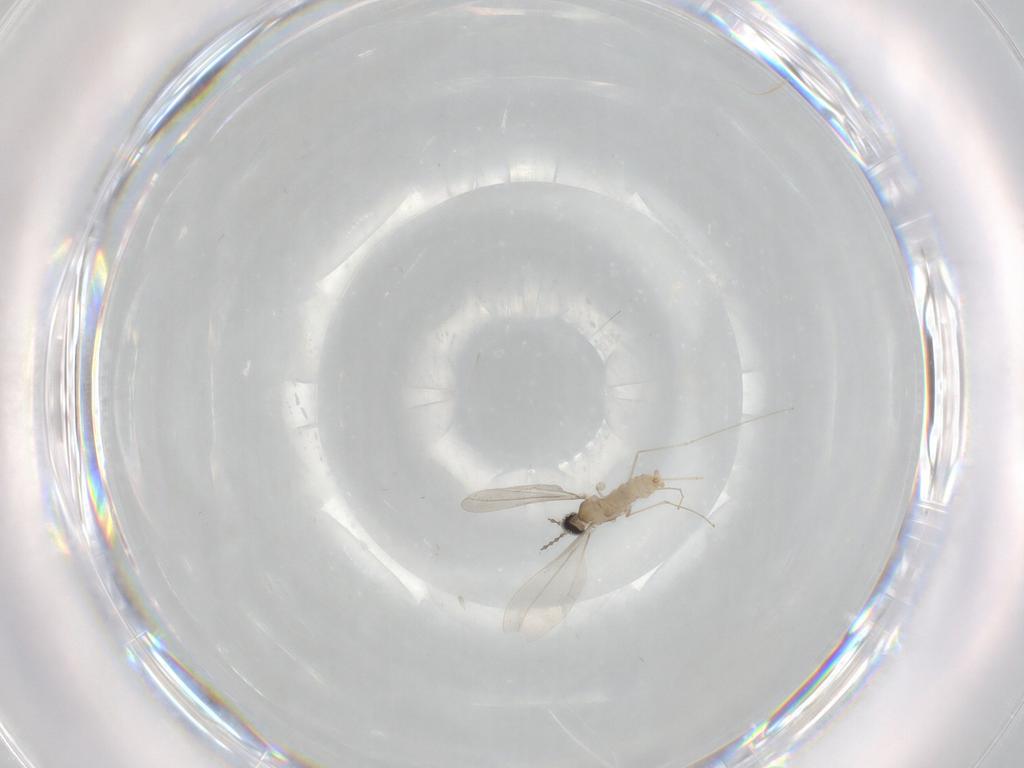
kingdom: Animalia
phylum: Arthropoda
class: Insecta
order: Diptera
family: Cecidomyiidae
